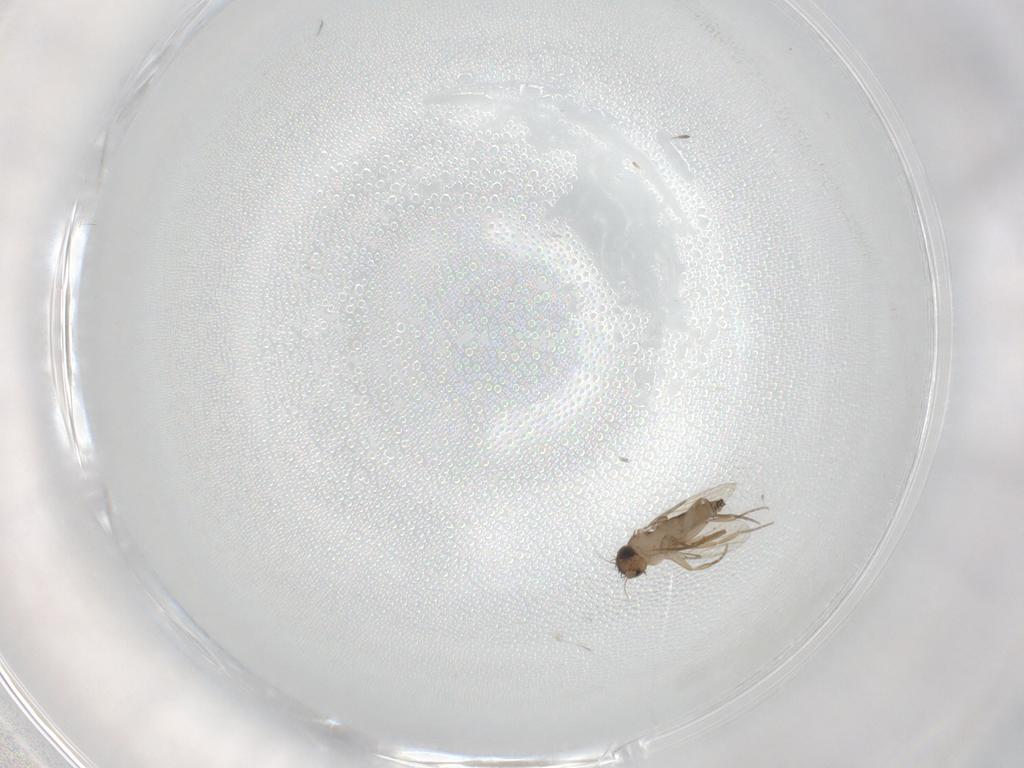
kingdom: Animalia
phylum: Arthropoda
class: Insecta
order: Diptera
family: Phoridae
